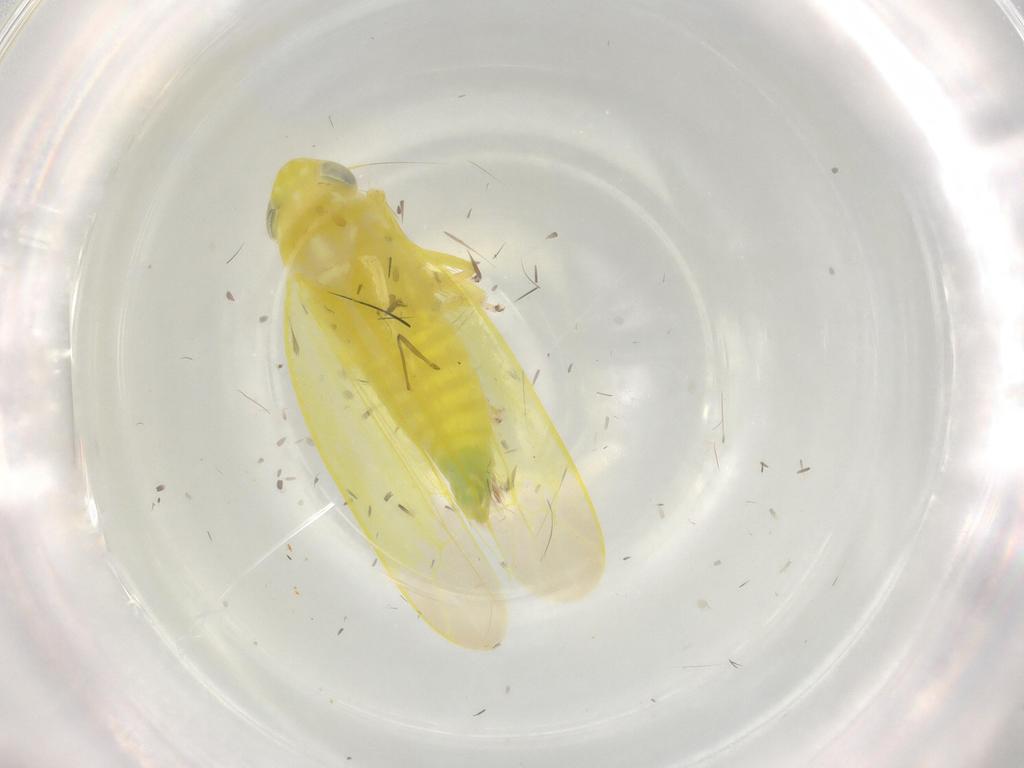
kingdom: Animalia
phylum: Arthropoda
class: Insecta
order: Hemiptera
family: Cicadellidae
